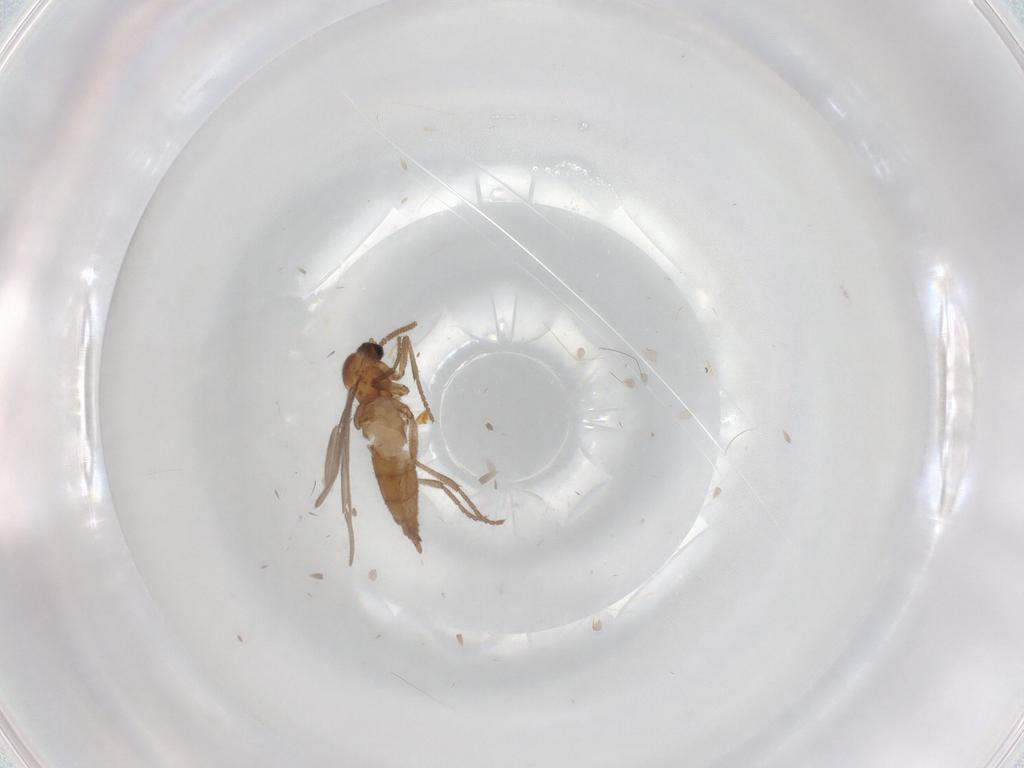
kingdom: Animalia
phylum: Arthropoda
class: Insecta
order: Diptera
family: Sciaridae
